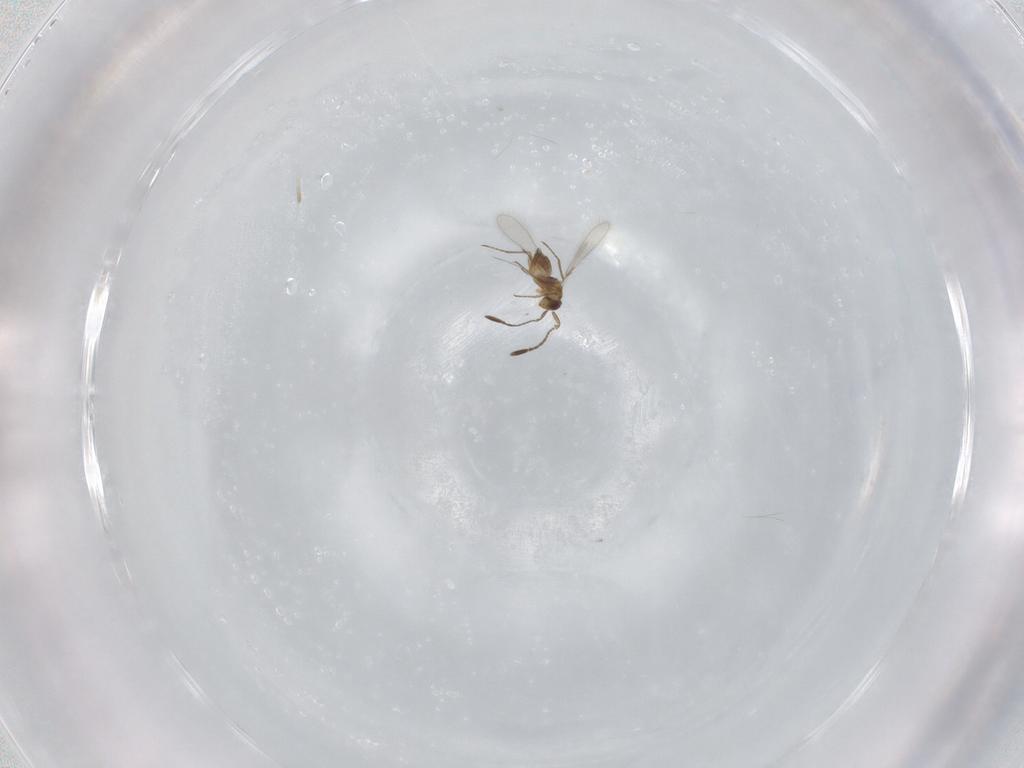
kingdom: Animalia
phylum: Arthropoda
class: Insecta
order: Hymenoptera
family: Mymaridae
